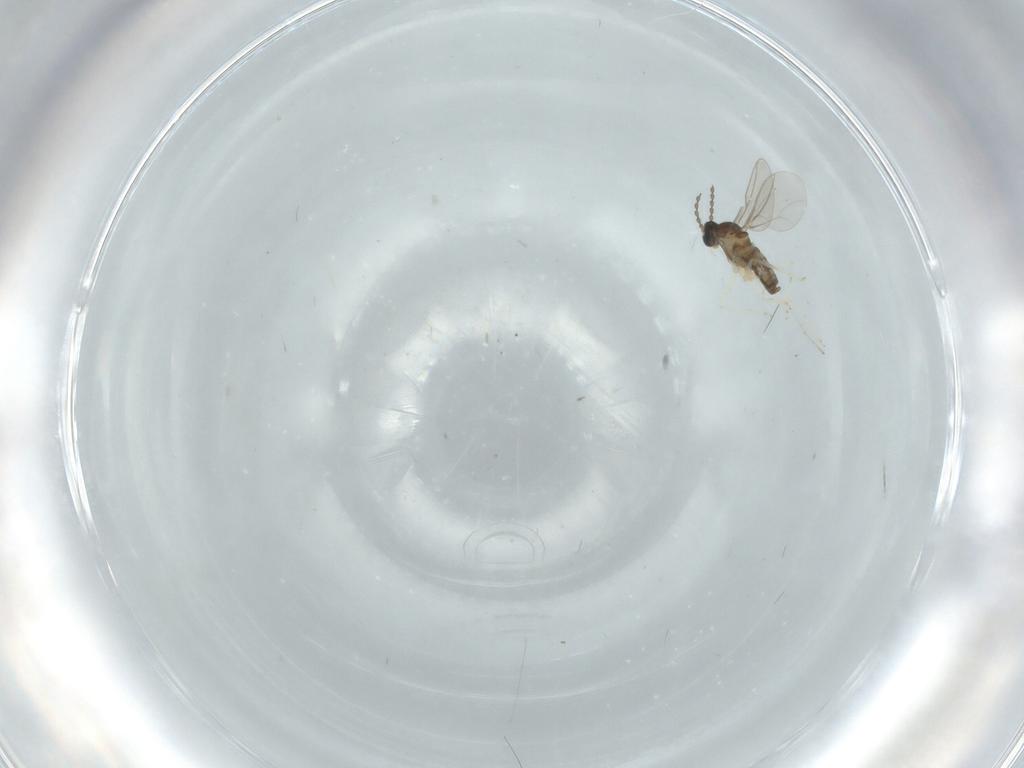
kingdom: Animalia
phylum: Arthropoda
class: Insecta
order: Diptera
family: Cecidomyiidae
